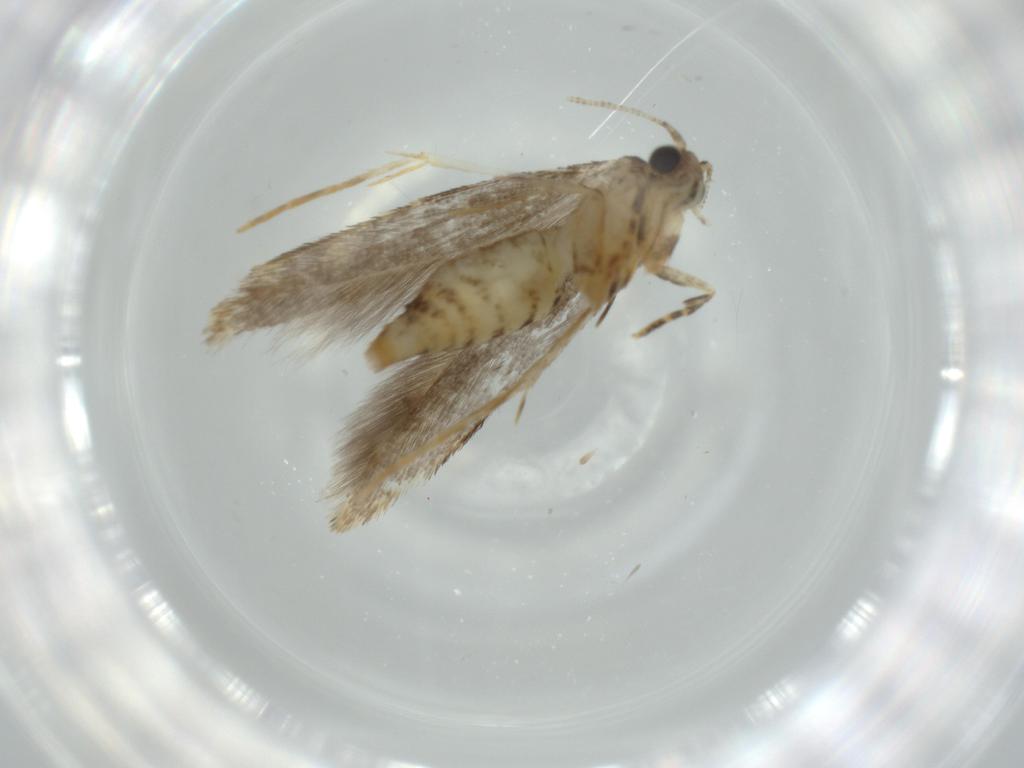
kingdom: Animalia
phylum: Arthropoda
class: Insecta
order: Lepidoptera
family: Tineidae
